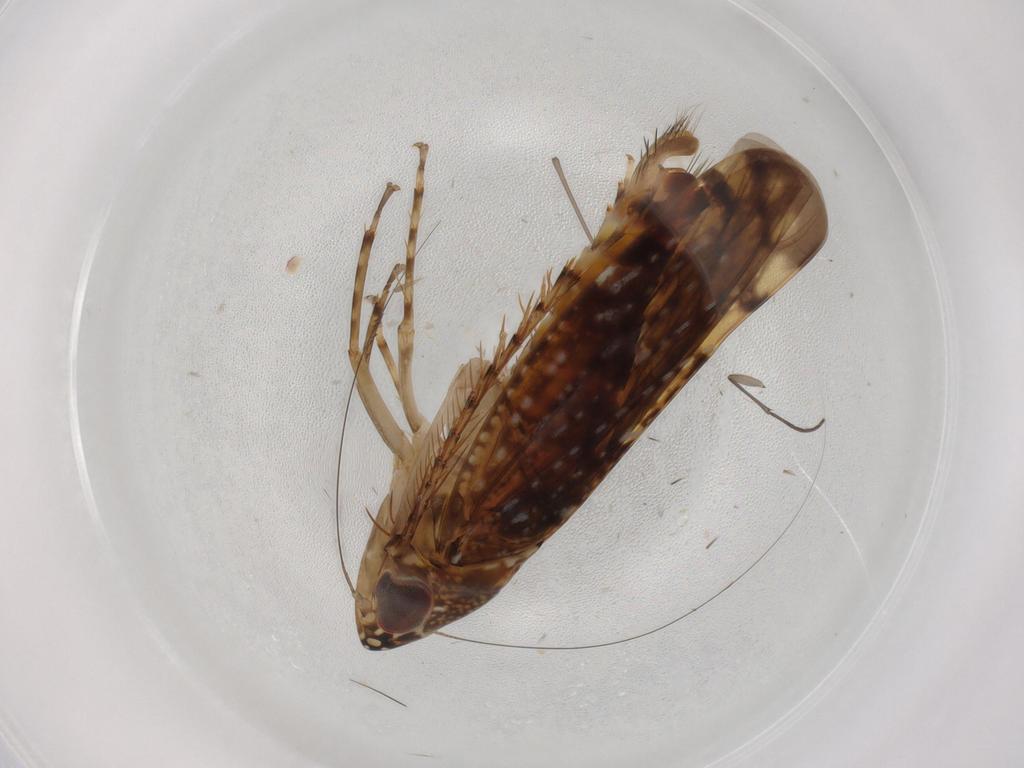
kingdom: Animalia
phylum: Arthropoda
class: Insecta
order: Hemiptera
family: Cicadellidae
